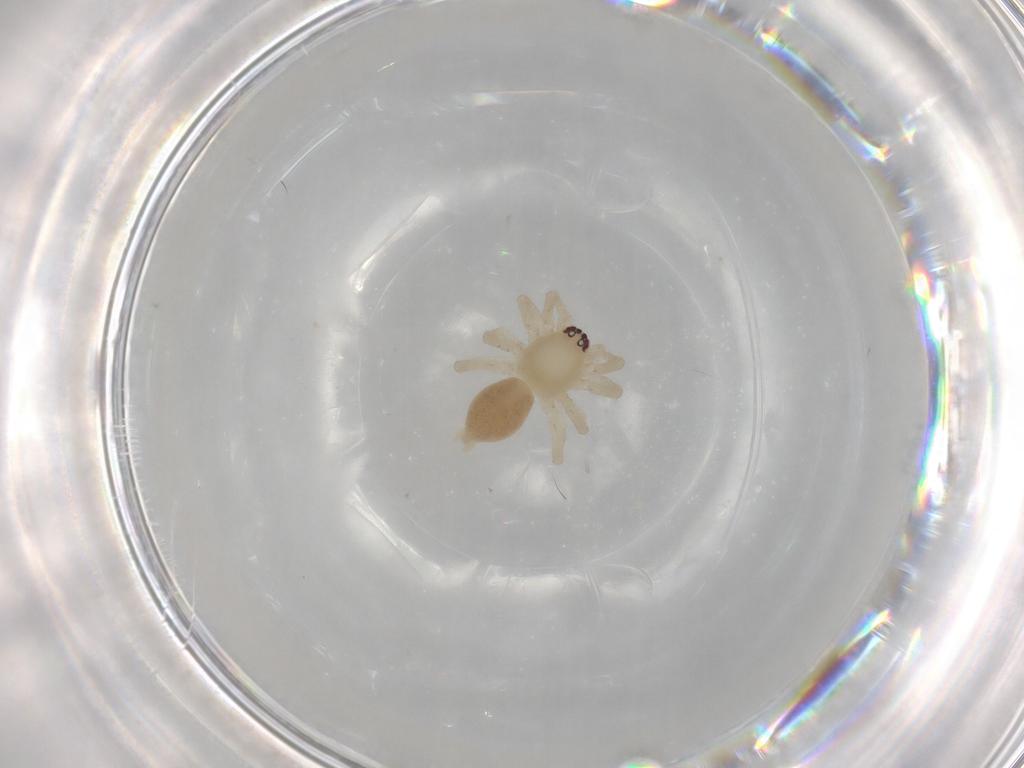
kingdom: Animalia
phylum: Arthropoda
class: Arachnida
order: Araneae
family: Clubionidae
